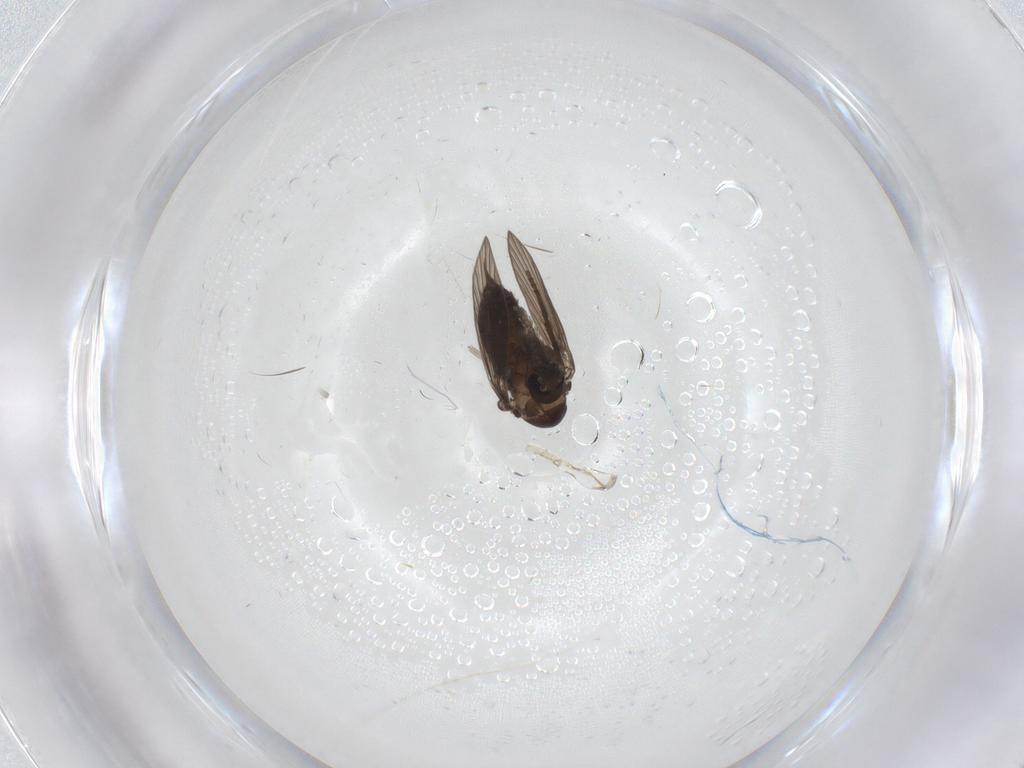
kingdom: Animalia
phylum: Arthropoda
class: Insecta
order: Diptera
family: Cecidomyiidae
